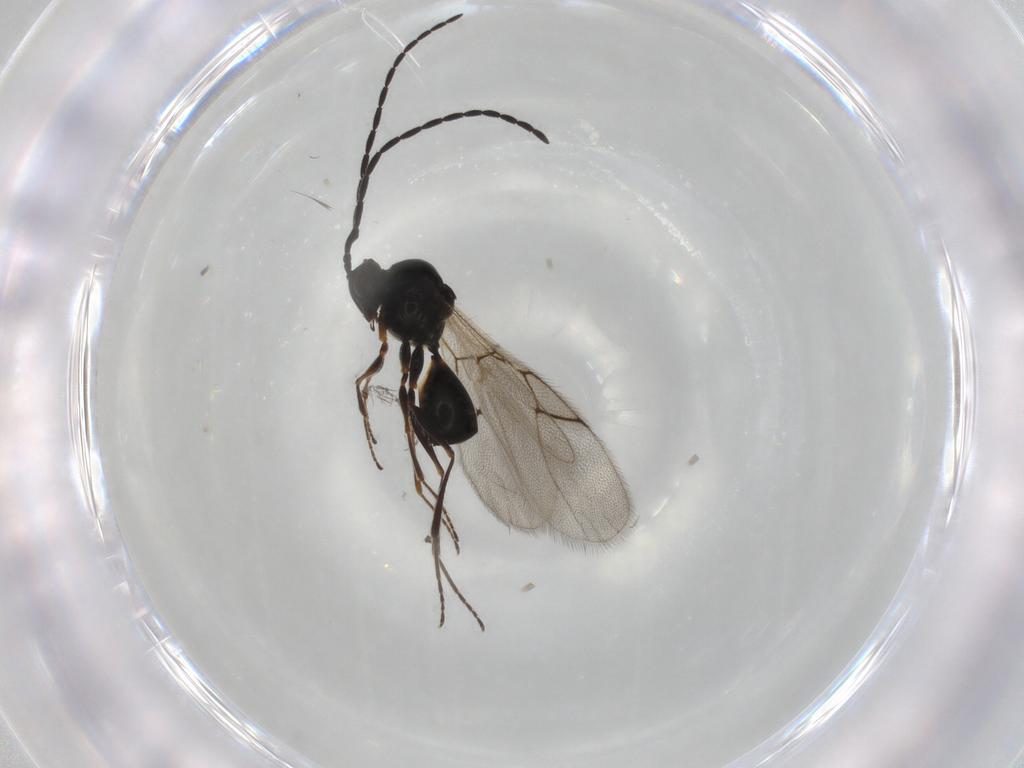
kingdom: Animalia
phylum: Arthropoda
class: Insecta
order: Hymenoptera
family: Figitidae
